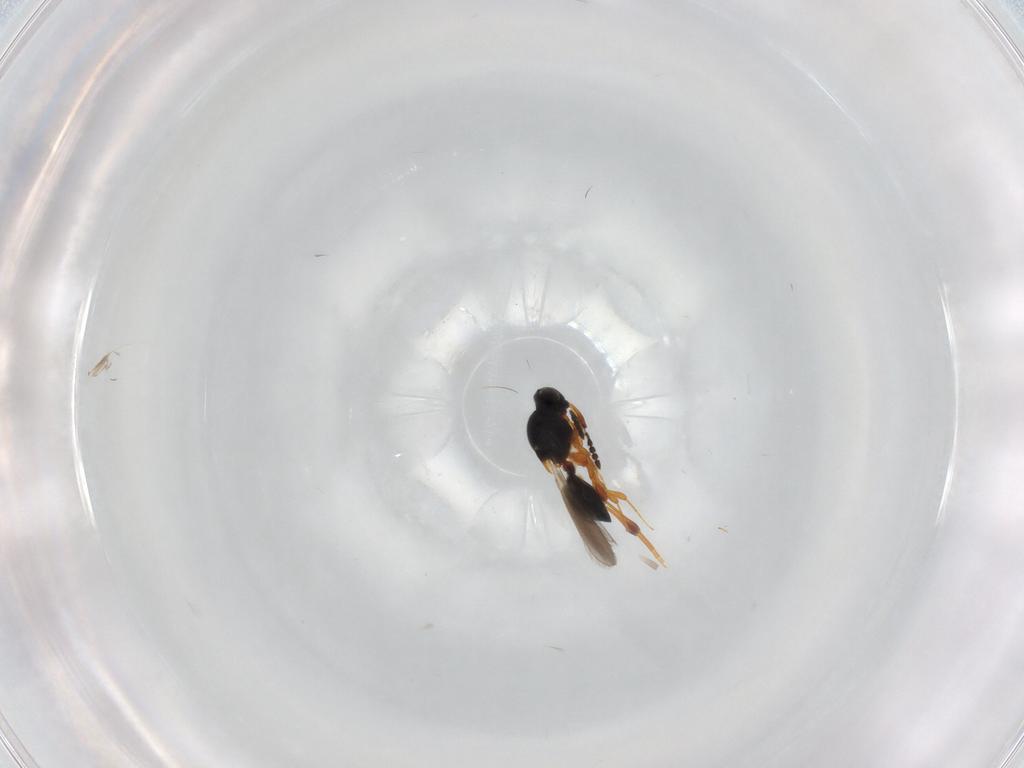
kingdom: Animalia
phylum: Arthropoda
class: Insecta
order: Hymenoptera
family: Platygastridae
